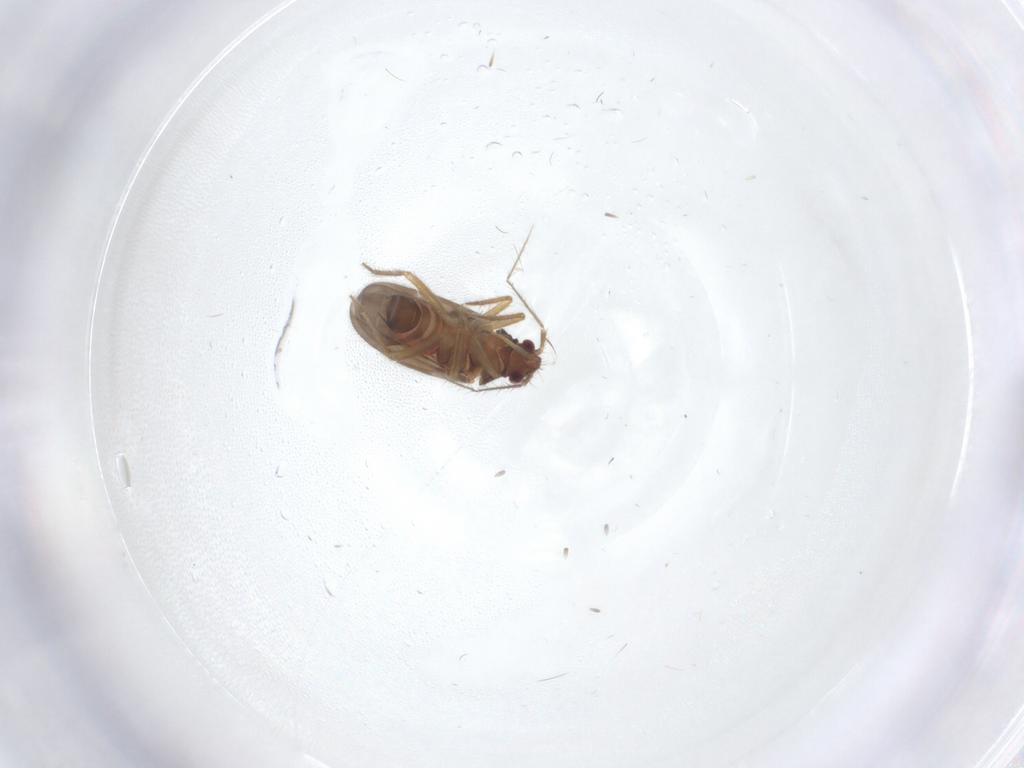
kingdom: Animalia
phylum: Arthropoda
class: Insecta
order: Hemiptera
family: Ceratocombidae
